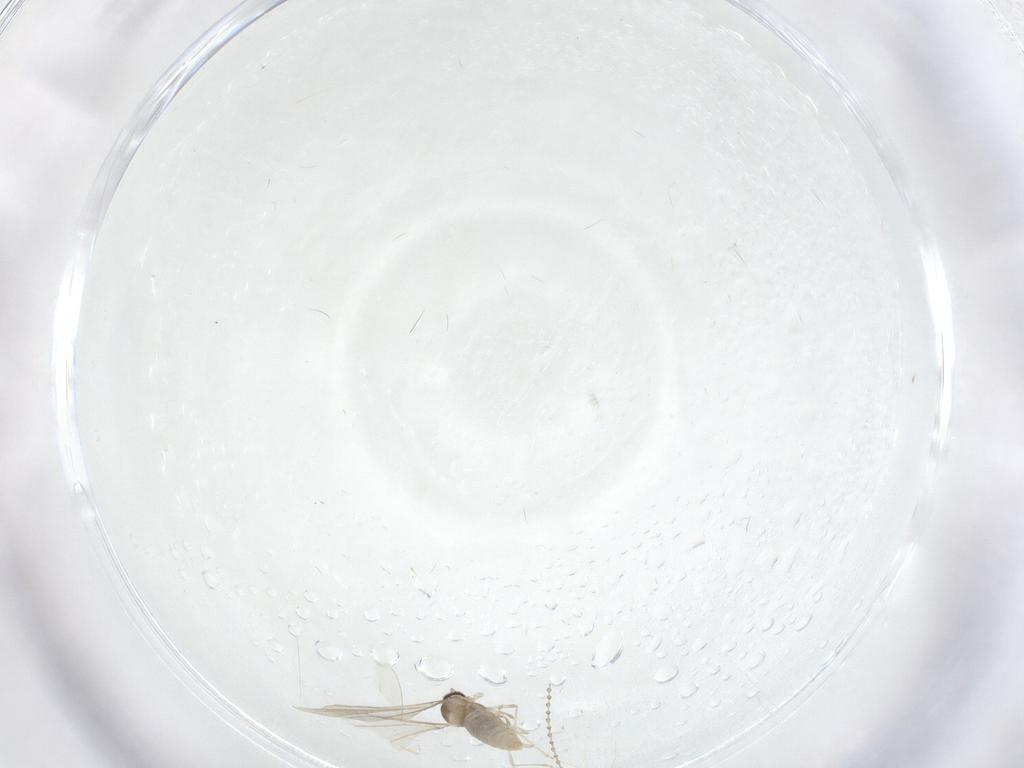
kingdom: Animalia
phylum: Arthropoda
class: Insecta
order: Diptera
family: Cecidomyiidae
